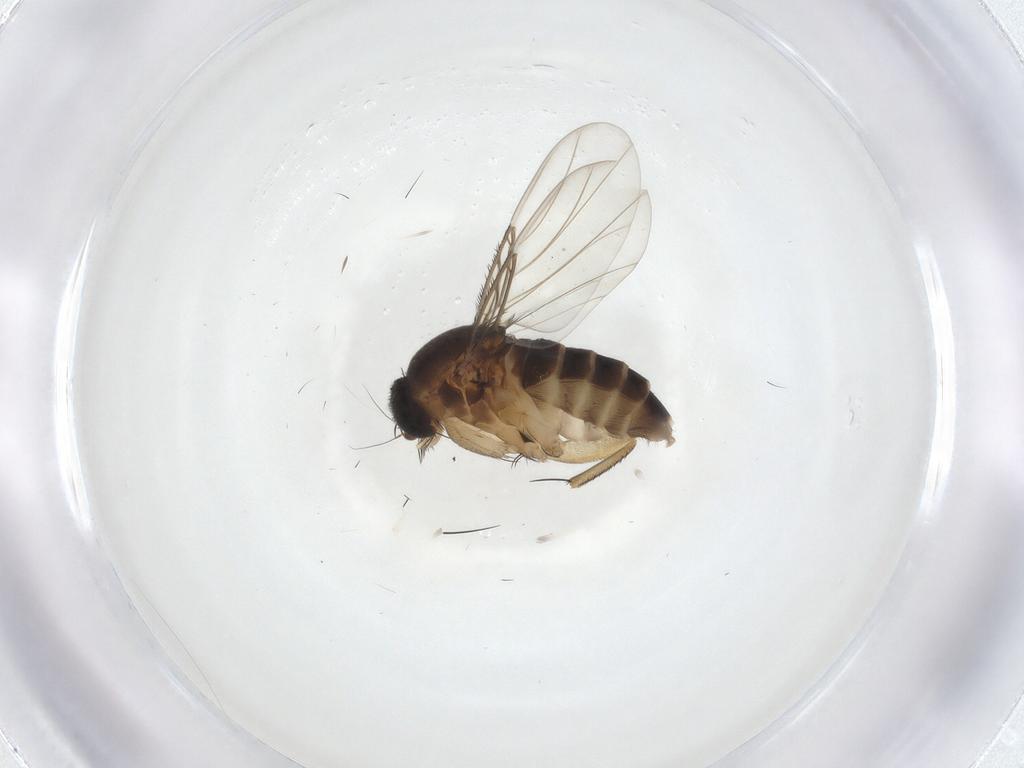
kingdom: Animalia
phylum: Arthropoda
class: Insecta
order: Diptera
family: Phoridae
